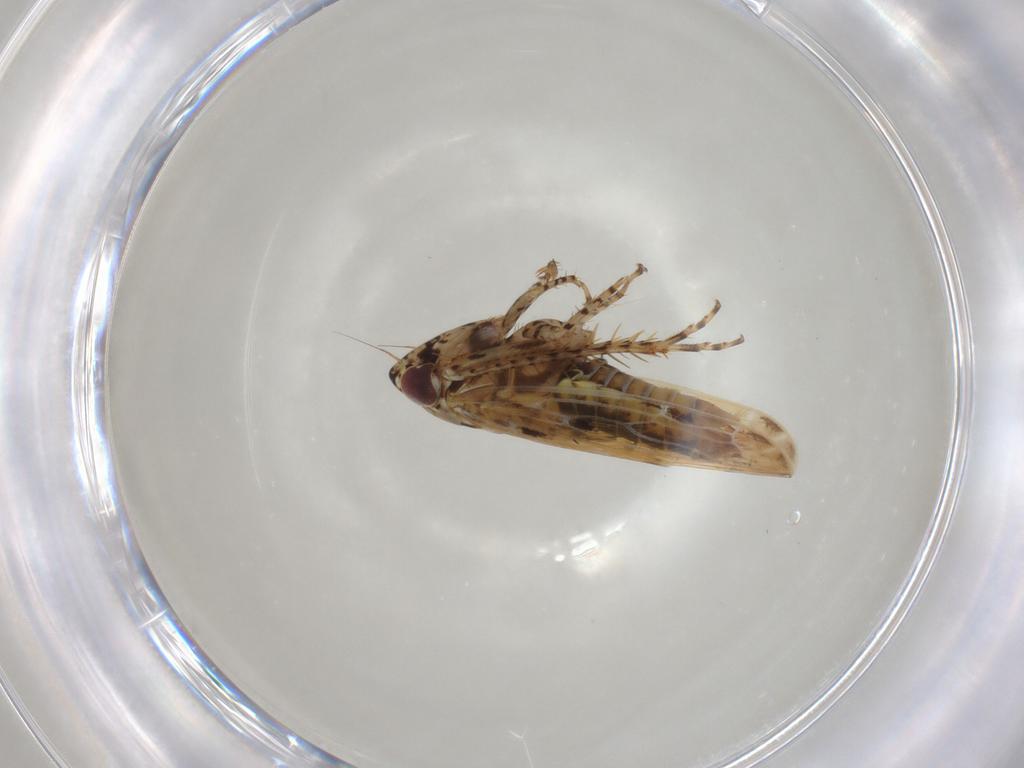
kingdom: Animalia
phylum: Arthropoda
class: Insecta
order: Hemiptera
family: Cicadellidae
